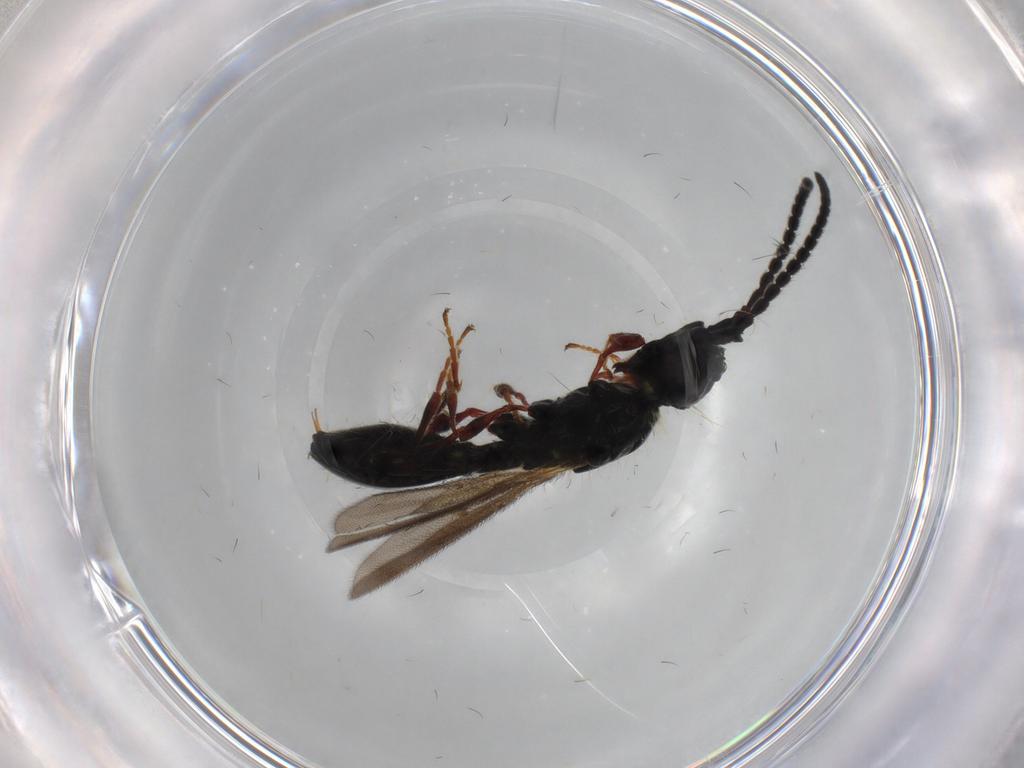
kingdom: Animalia
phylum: Arthropoda
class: Insecta
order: Hymenoptera
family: Diapriidae
